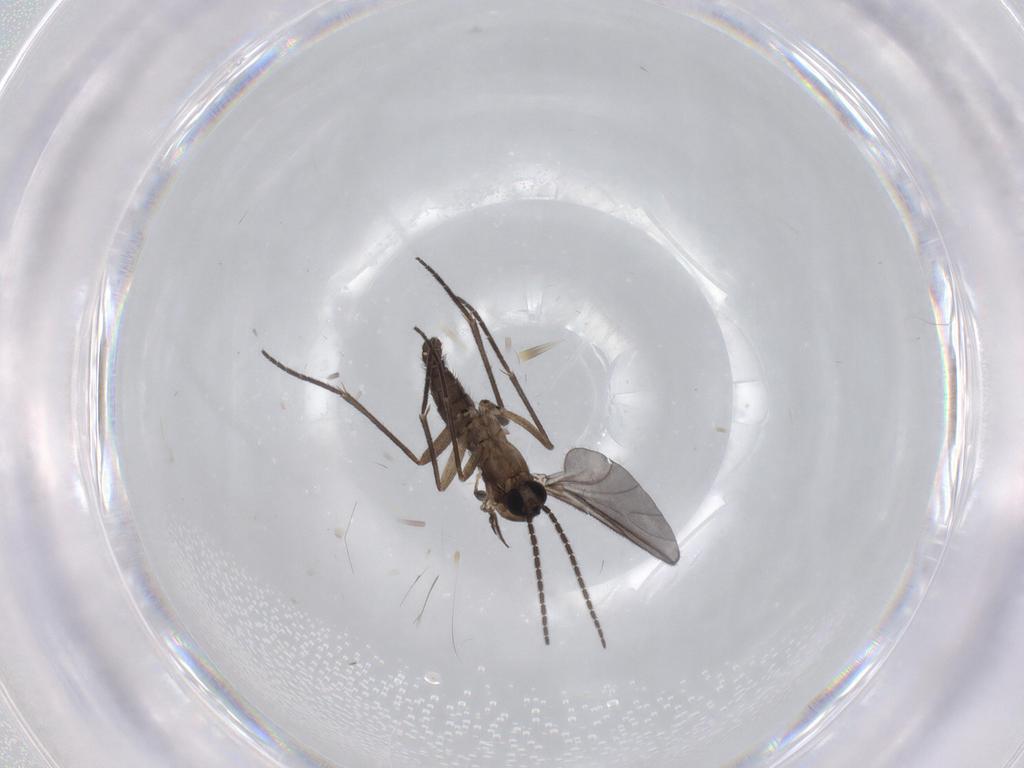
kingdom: Animalia
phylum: Arthropoda
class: Insecta
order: Diptera
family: Sciaridae
